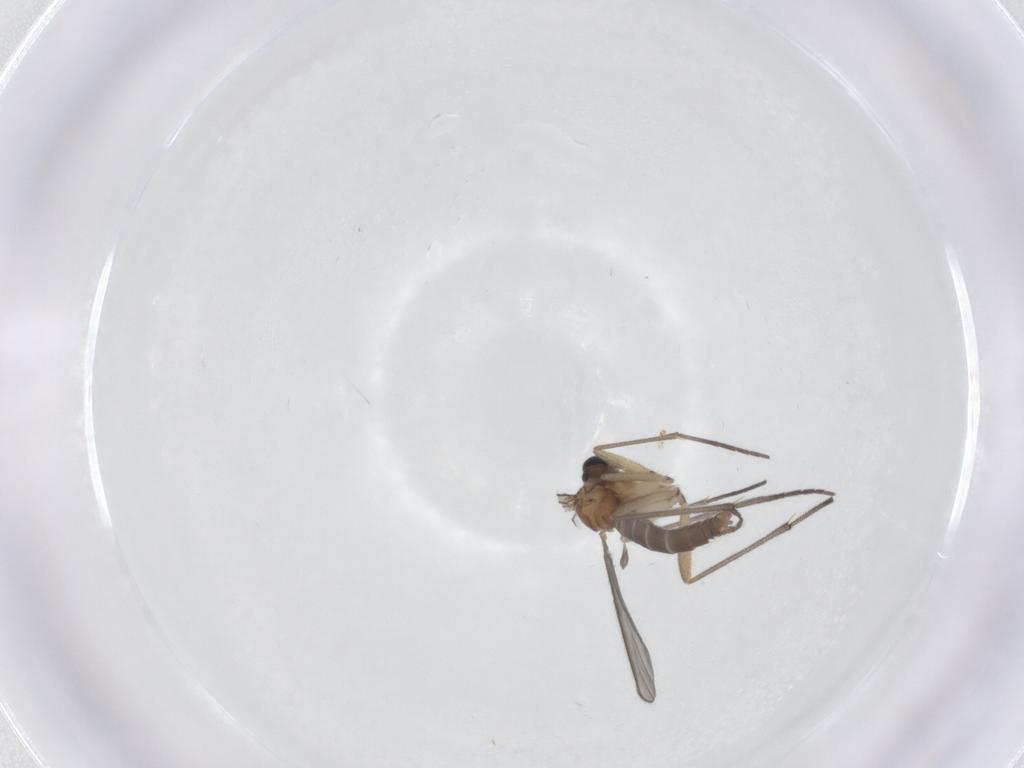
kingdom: Animalia
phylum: Arthropoda
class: Insecta
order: Diptera
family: Sciaridae
